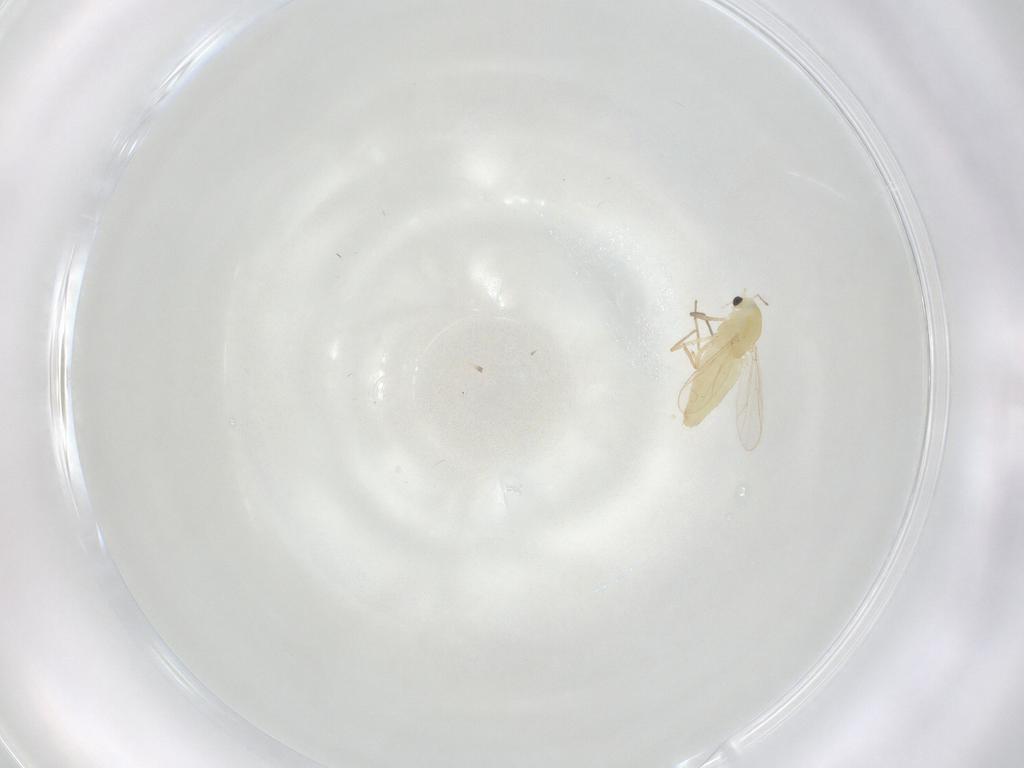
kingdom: Animalia
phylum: Arthropoda
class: Insecta
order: Diptera
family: Chironomidae
